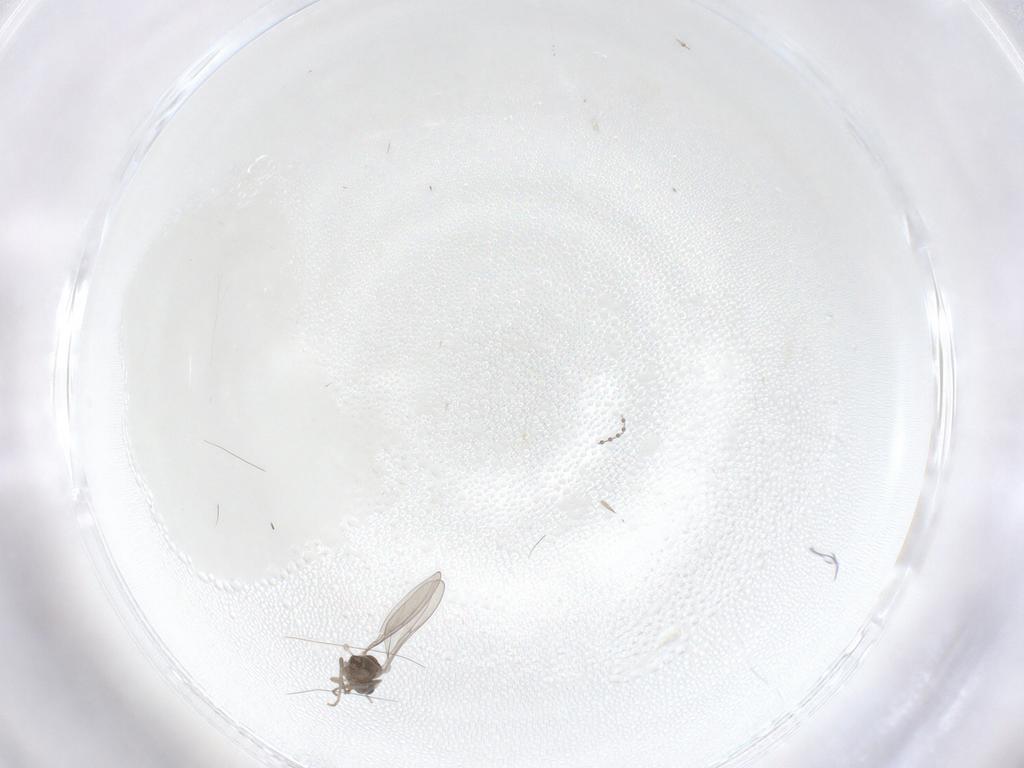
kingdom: Animalia
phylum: Arthropoda
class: Insecta
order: Diptera
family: Cecidomyiidae
